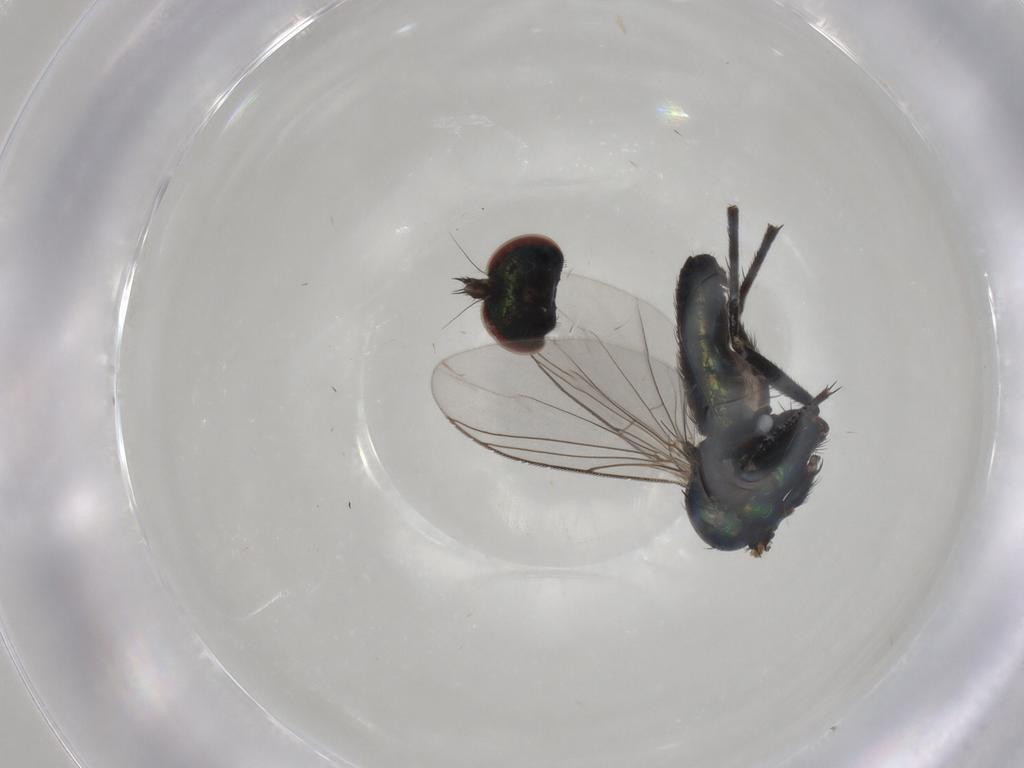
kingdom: Animalia
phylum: Arthropoda
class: Insecta
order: Diptera
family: Dolichopodidae
